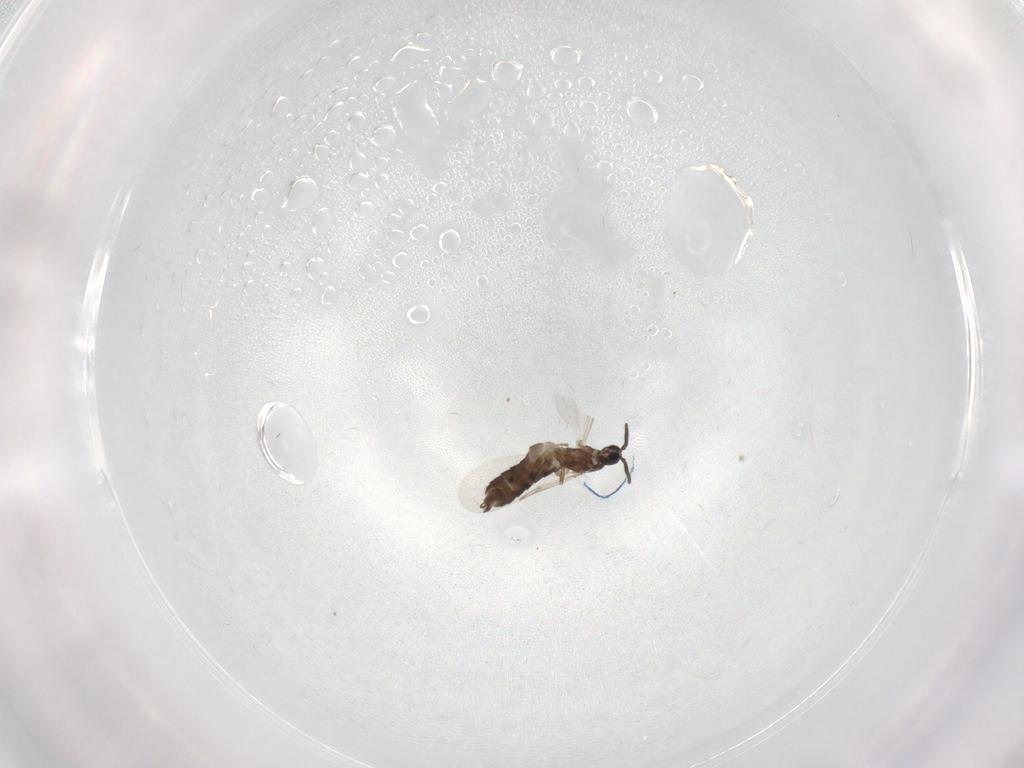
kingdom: Animalia
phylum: Arthropoda
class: Insecta
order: Diptera
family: Scatopsidae
